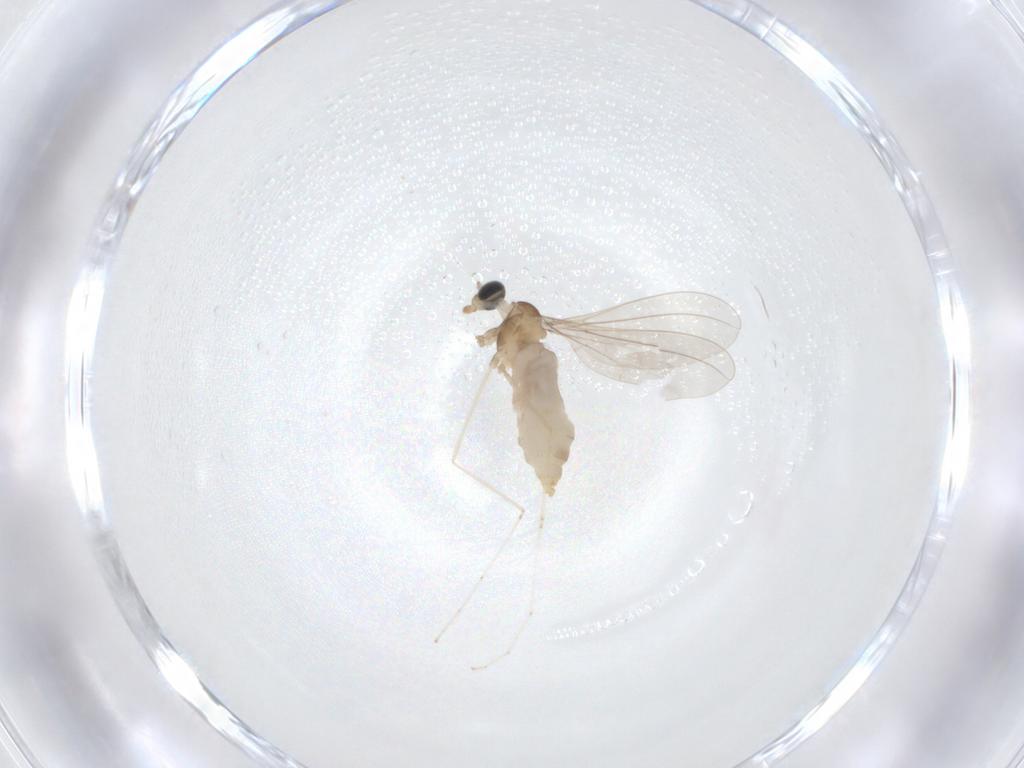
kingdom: Animalia
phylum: Arthropoda
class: Insecta
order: Diptera
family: Cecidomyiidae
